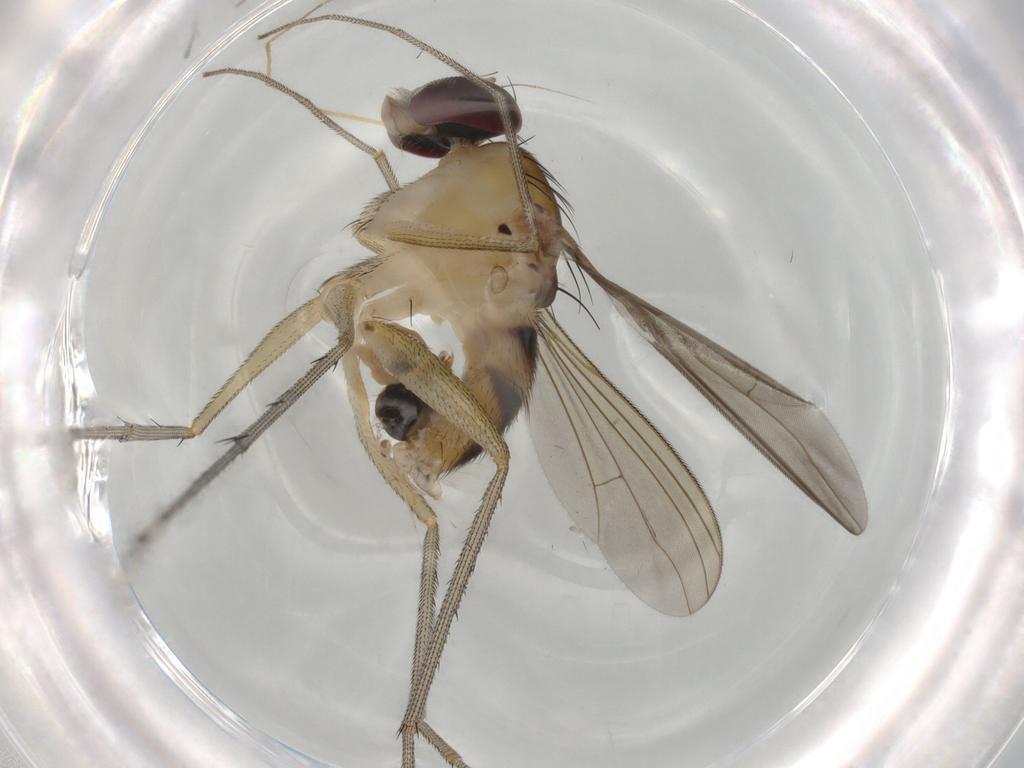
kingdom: Animalia
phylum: Arthropoda
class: Insecta
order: Diptera
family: Cecidomyiidae
